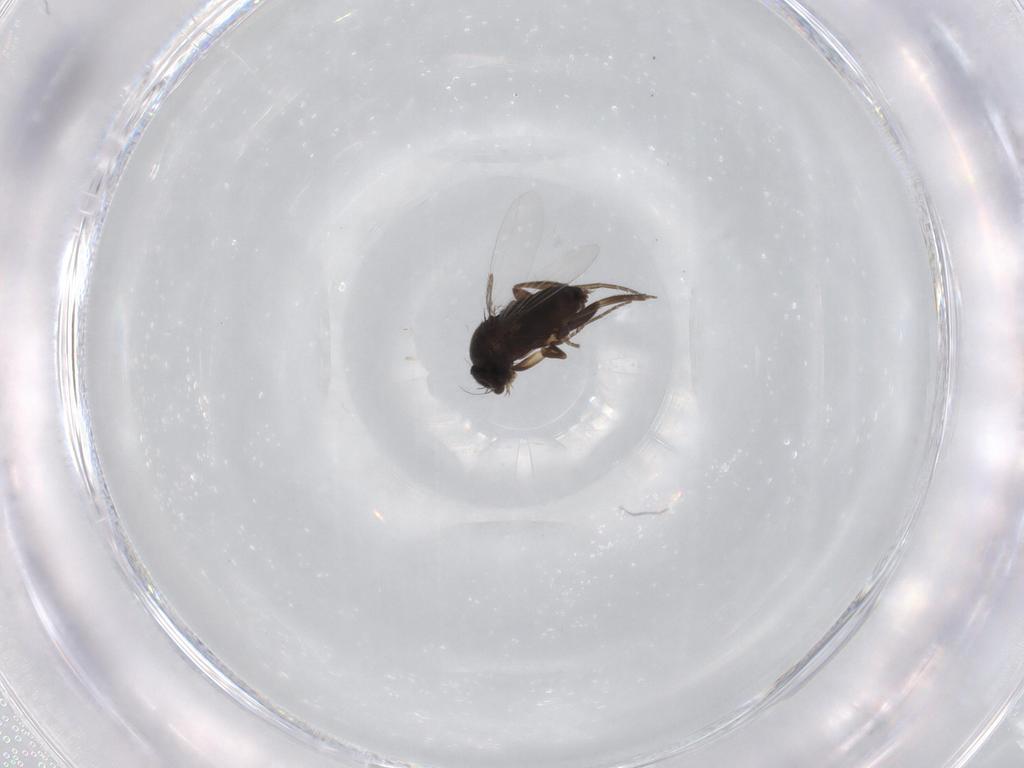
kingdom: Animalia
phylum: Arthropoda
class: Insecta
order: Diptera
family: Phoridae
